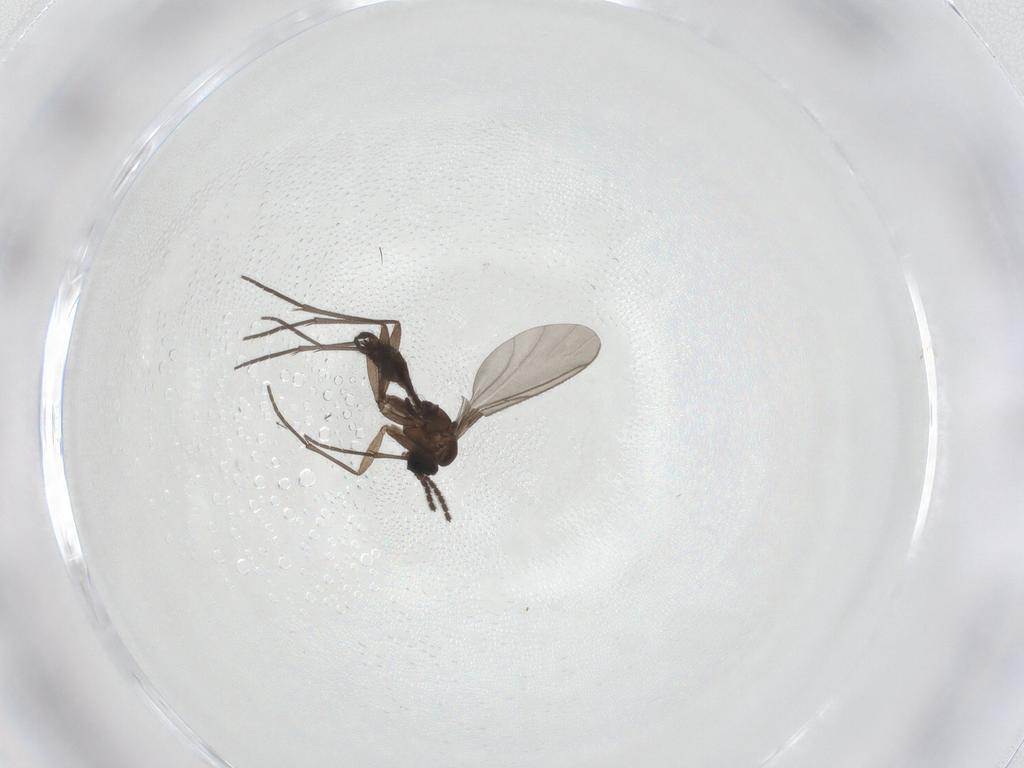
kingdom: Animalia
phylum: Arthropoda
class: Insecta
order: Diptera
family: Sciaridae
